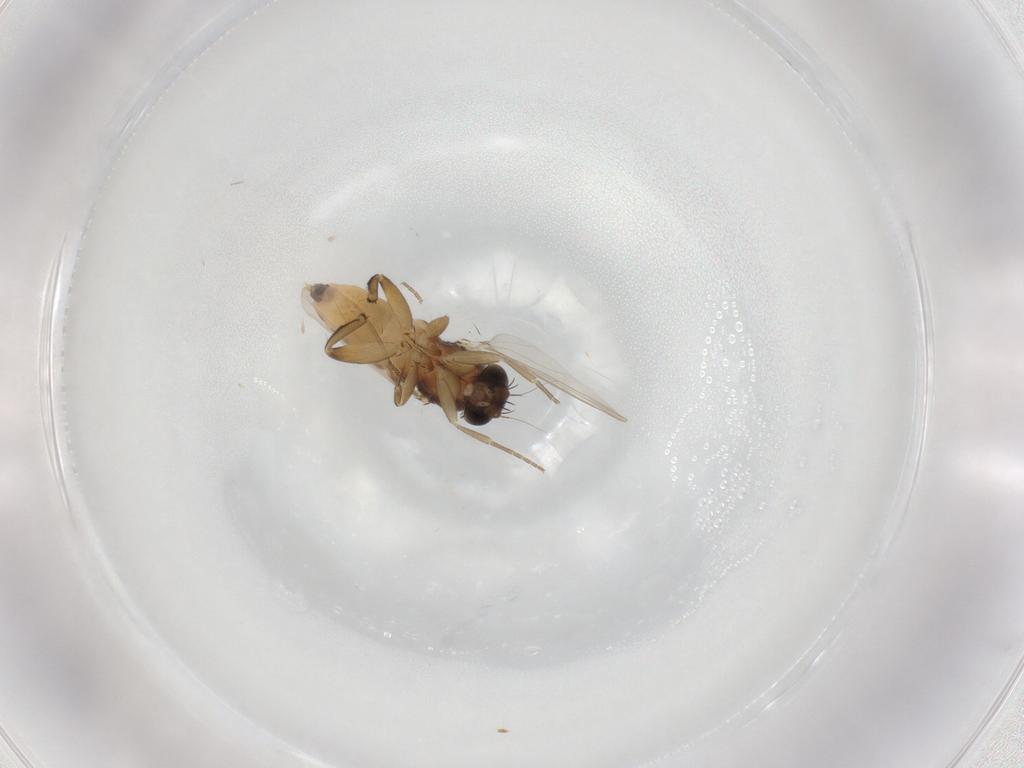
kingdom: Animalia
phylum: Arthropoda
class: Insecta
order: Diptera
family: Phoridae
